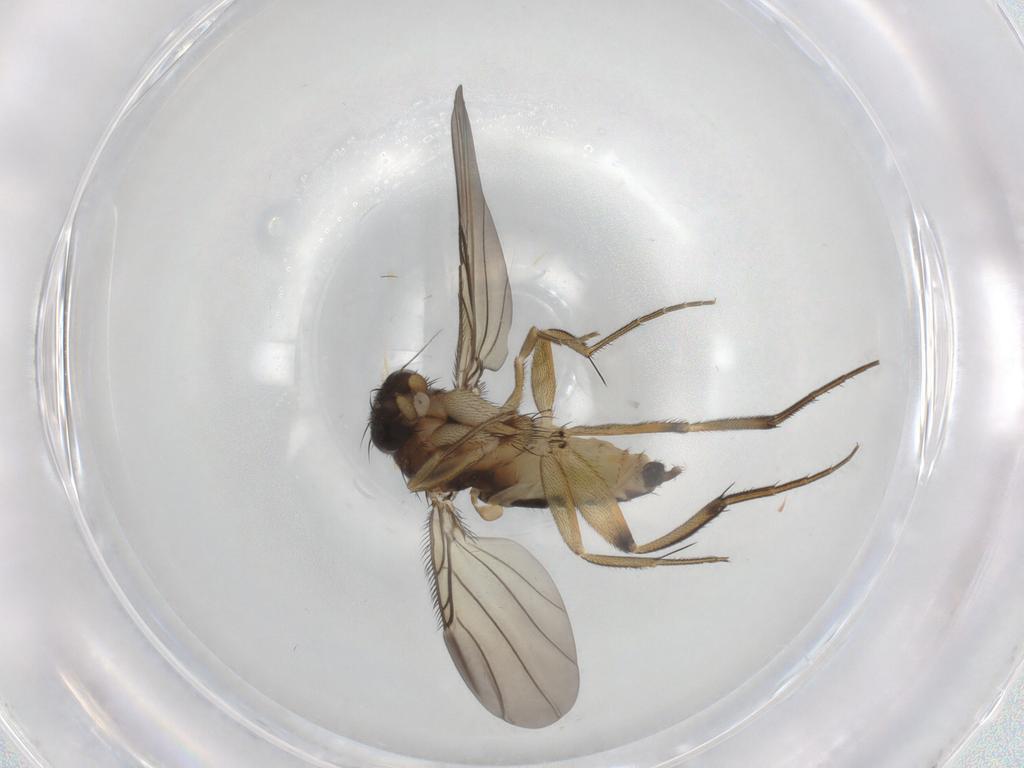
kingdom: Animalia
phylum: Arthropoda
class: Insecta
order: Diptera
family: Phoridae
